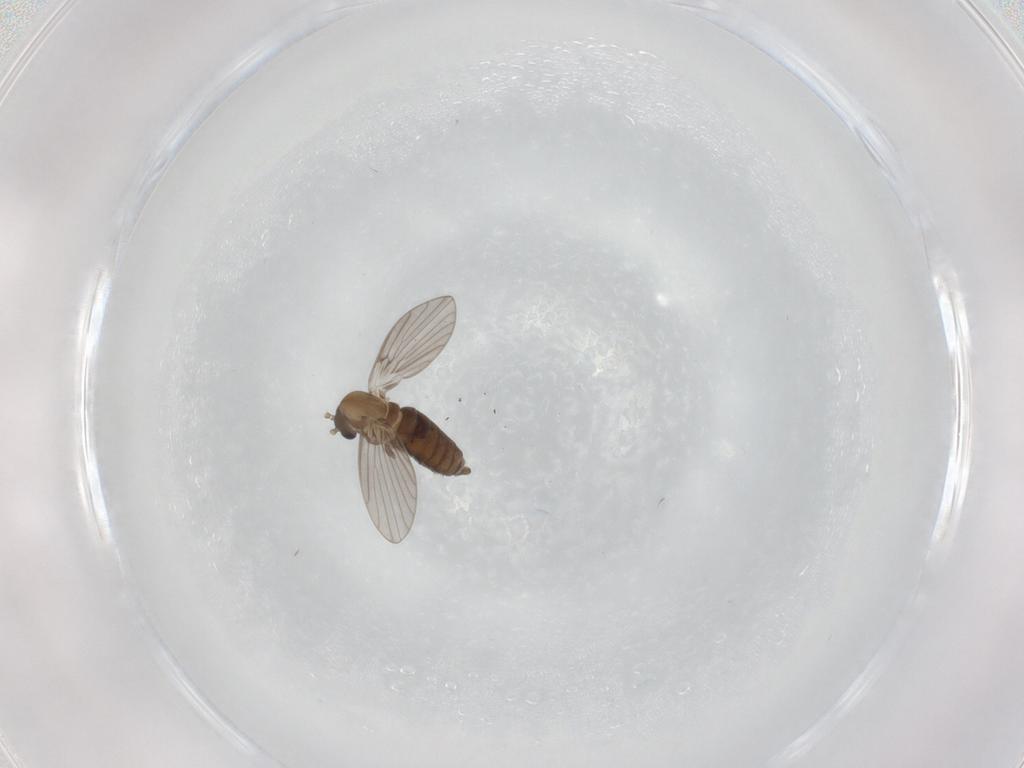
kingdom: Animalia
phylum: Arthropoda
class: Insecta
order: Diptera
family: Psychodidae
